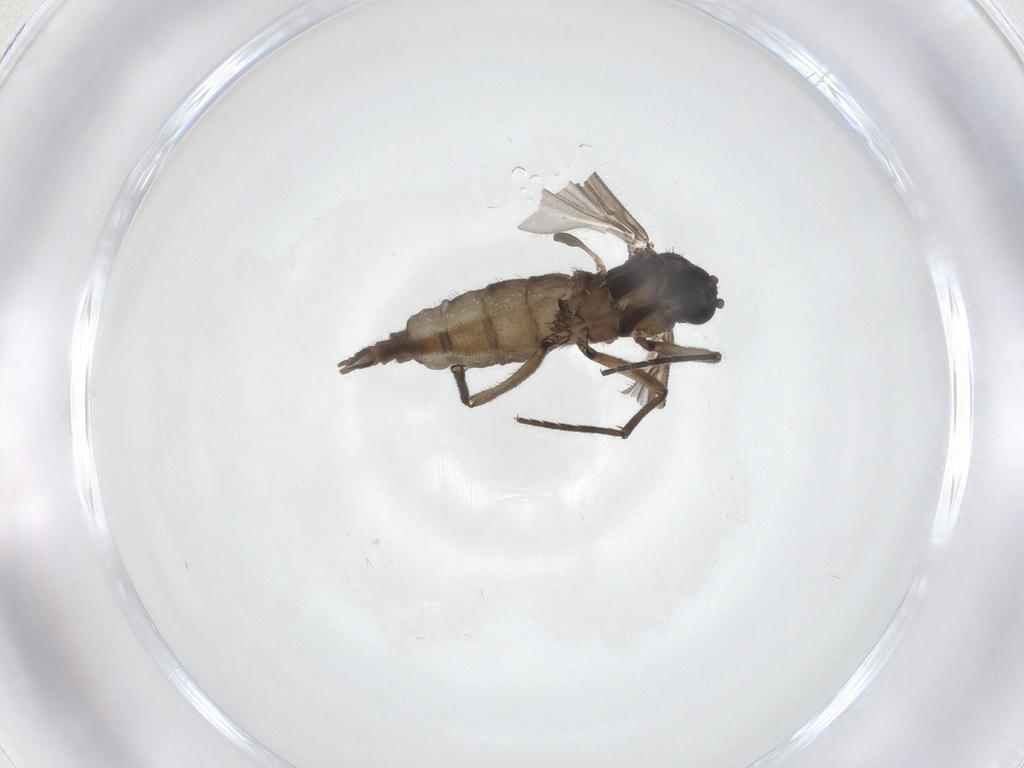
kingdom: Animalia
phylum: Arthropoda
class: Insecta
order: Diptera
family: Sciaridae
